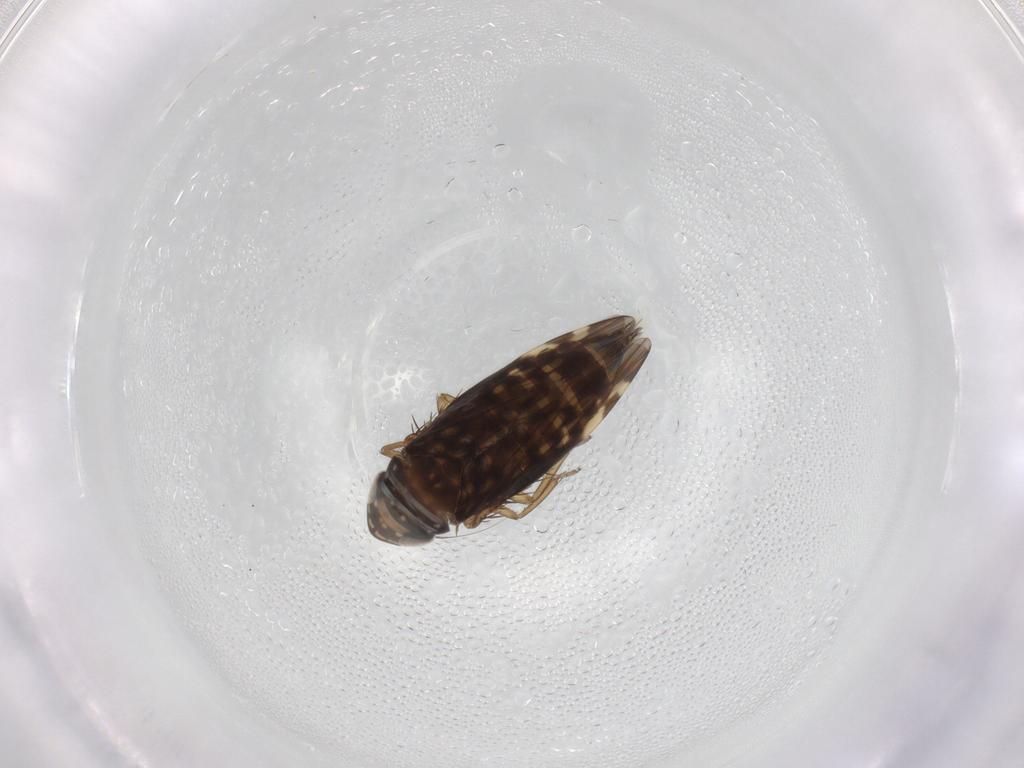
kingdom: Animalia
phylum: Arthropoda
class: Insecta
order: Hemiptera
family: Cicadellidae
